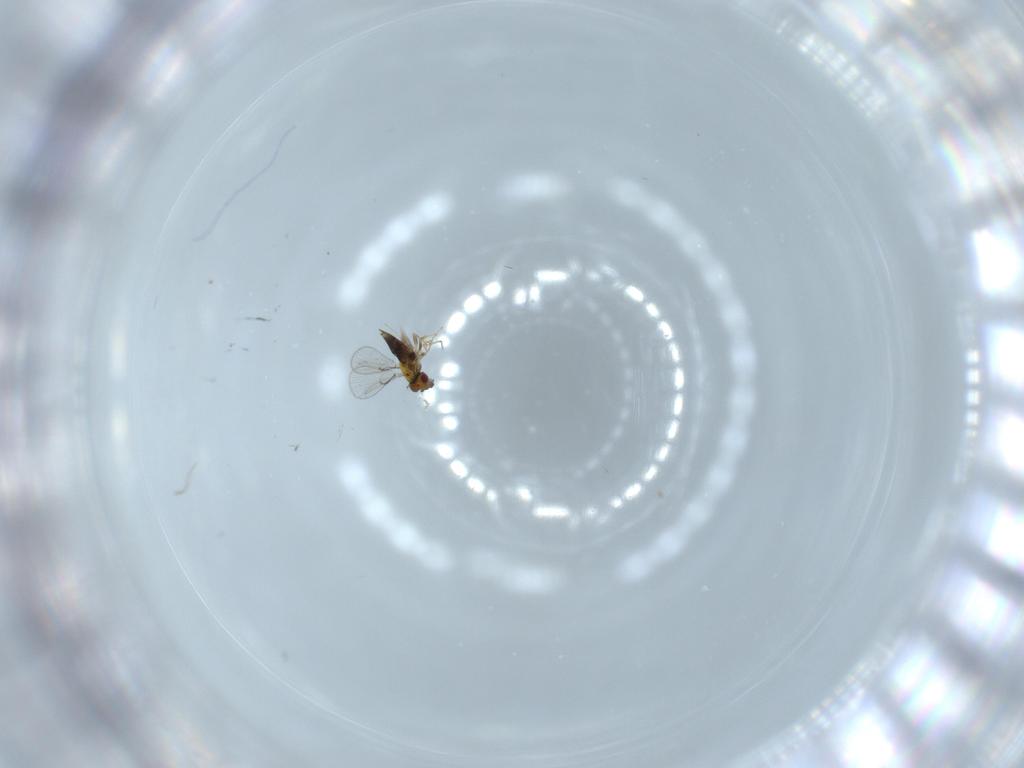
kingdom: Animalia
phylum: Arthropoda
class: Insecta
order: Hymenoptera
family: Trichogrammatidae
